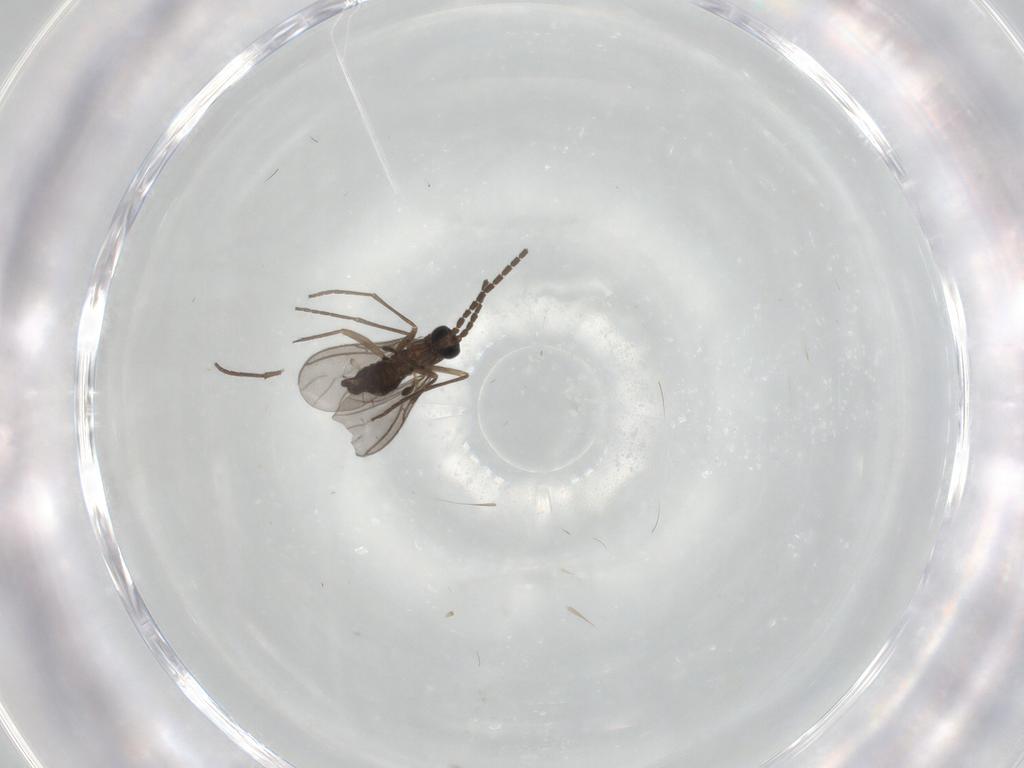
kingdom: Animalia
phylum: Arthropoda
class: Insecta
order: Diptera
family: Sciaridae
